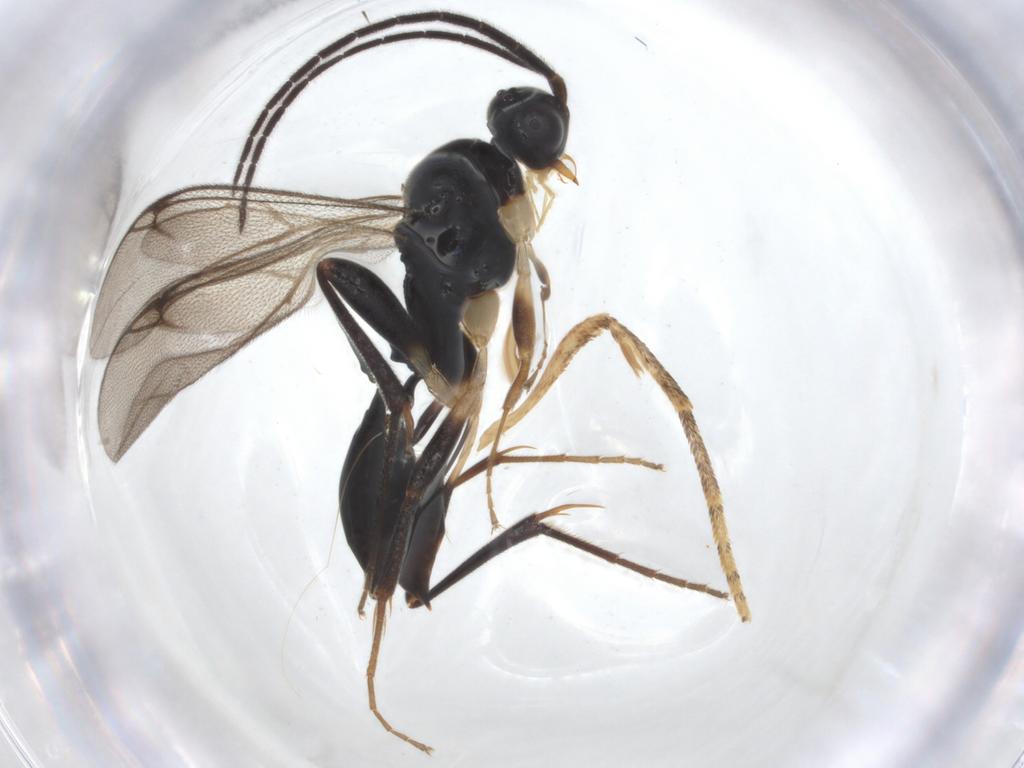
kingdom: Animalia
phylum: Arthropoda
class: Insecta
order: Hymenoptera
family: Proctotrupidae
